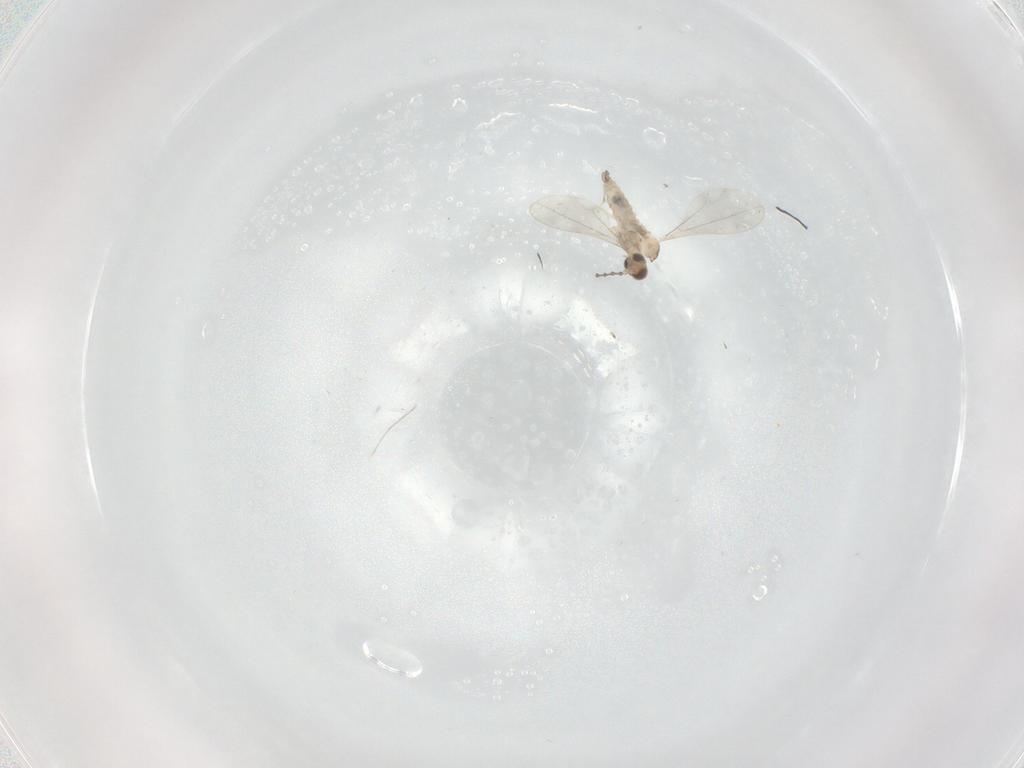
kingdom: Animalia
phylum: Arthropoda
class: Insecta
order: Diptera
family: Cecidomyiidae
